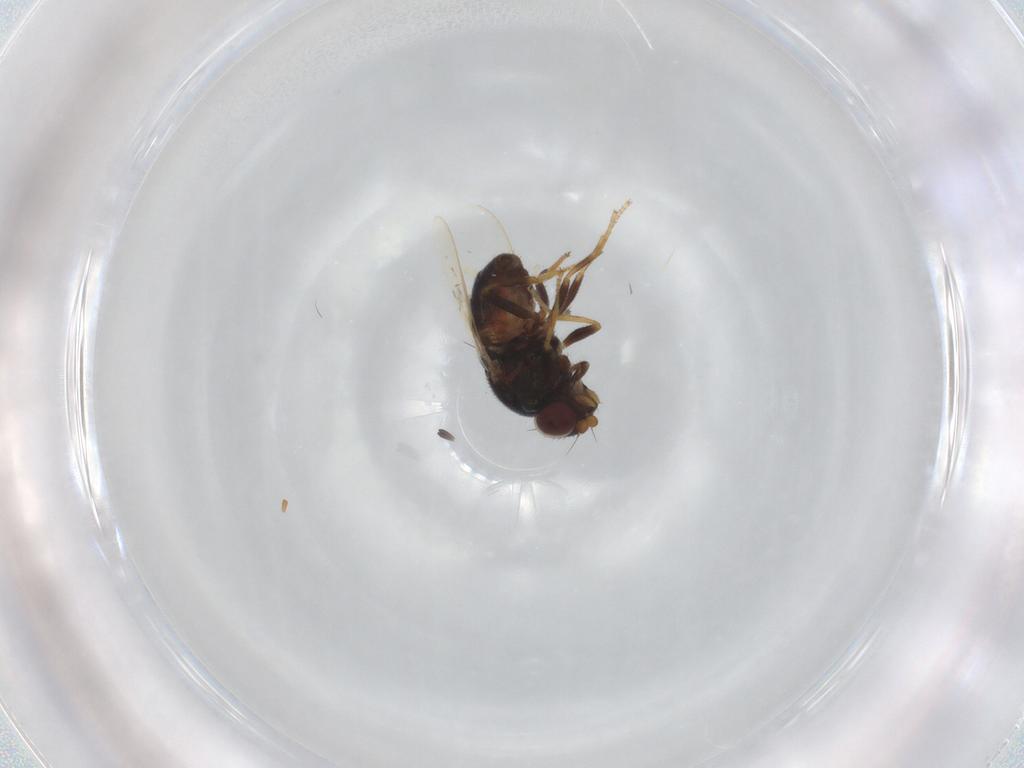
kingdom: Animalia
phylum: Arthropoda
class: Insecta
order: Diptera
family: Chloropidae
